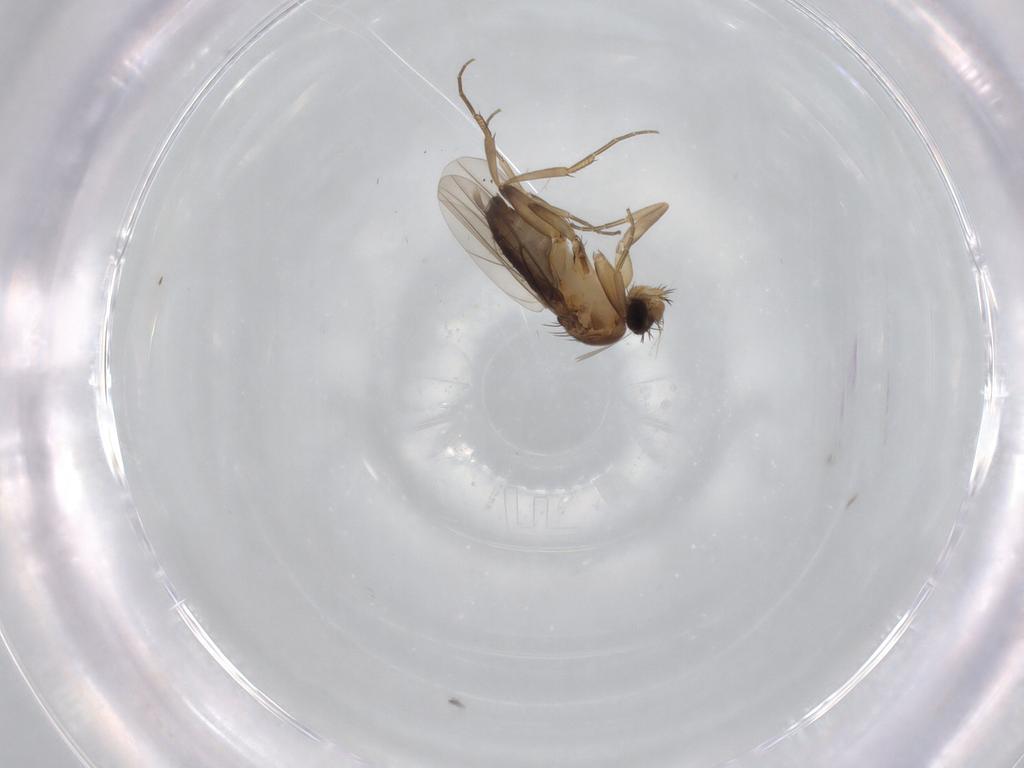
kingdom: Animalia
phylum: Arthropoda
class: Insecta
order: Diptera
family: Phoridae
